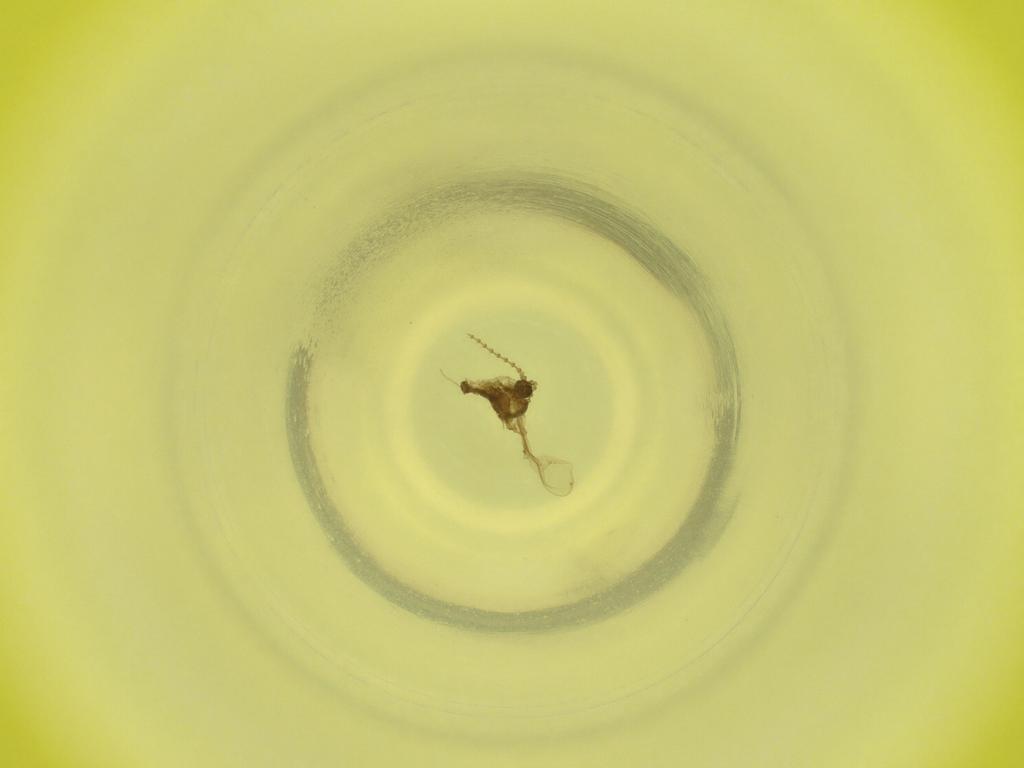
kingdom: Animalia
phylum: Arthropoda
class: Insecta
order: Diptera
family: Cecidomyiidae
